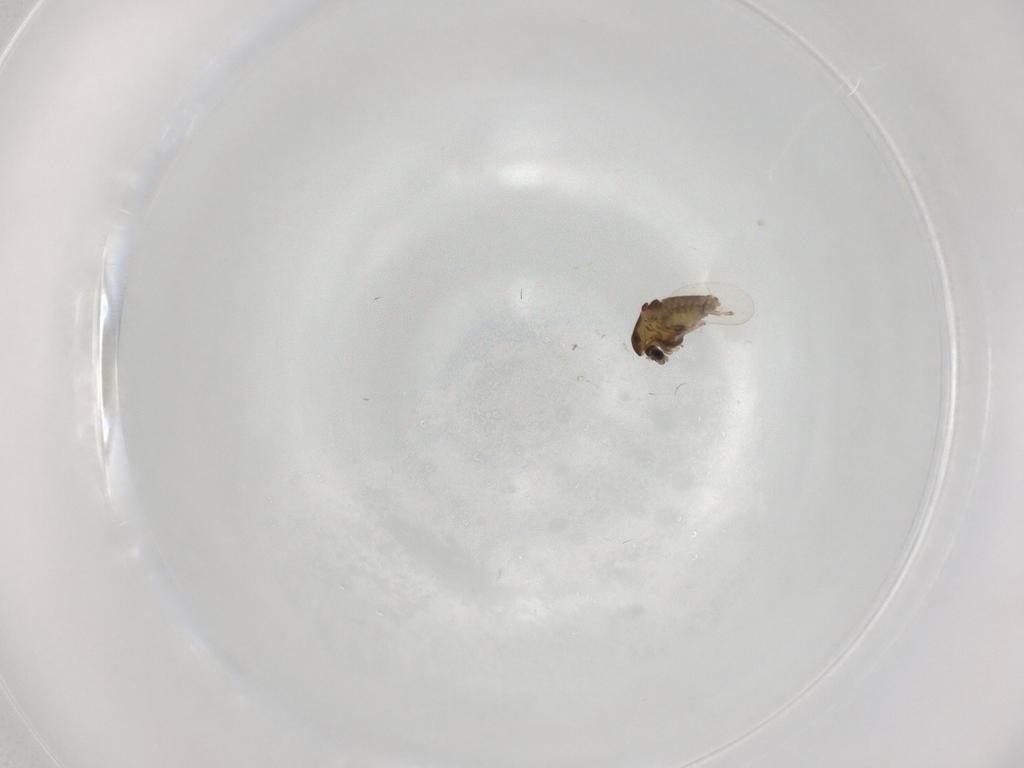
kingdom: Animalia
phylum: Arthropoda
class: Insecta
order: Diptera
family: Chironomidae
